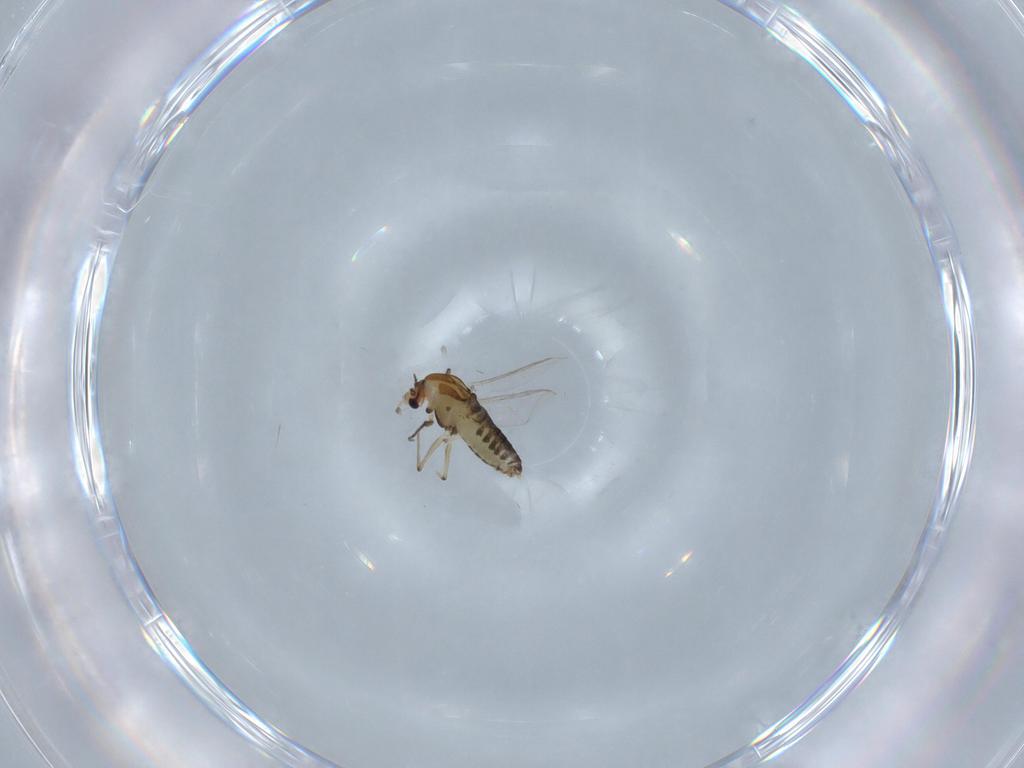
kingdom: Animalia
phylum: Arthropoda
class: Insecta
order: Diptera
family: Chironomidae
